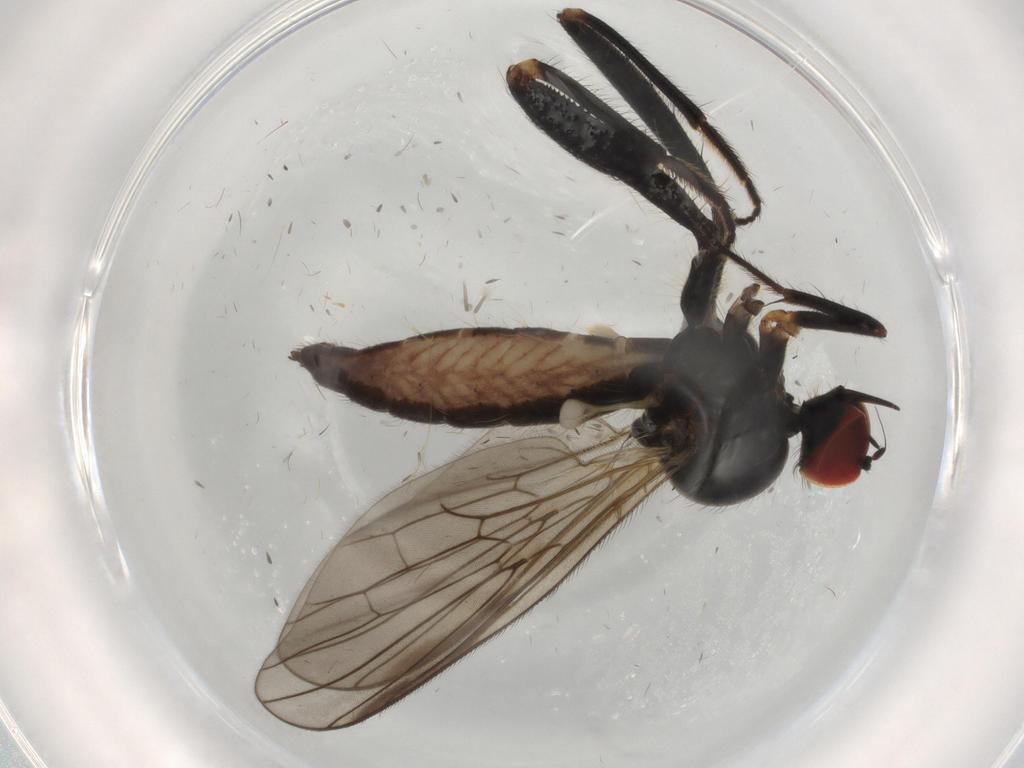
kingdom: Animalia
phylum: Arthropoda
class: Insecta
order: Diptera
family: Hybotidae
